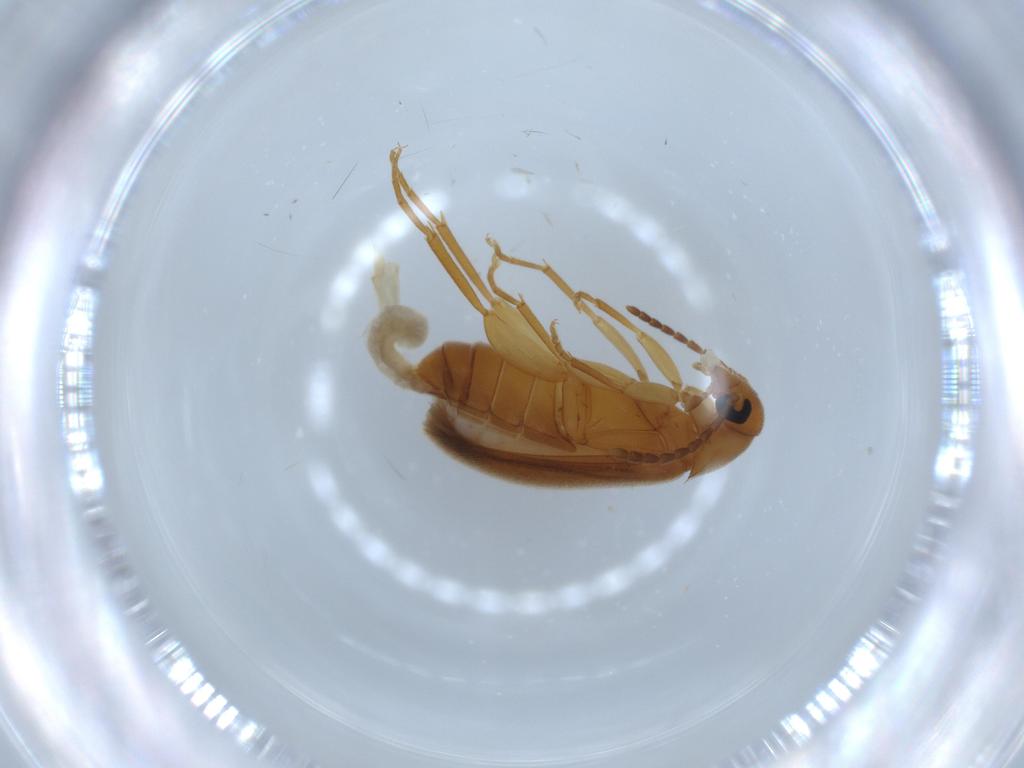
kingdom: Animalia
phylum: Arthropoda
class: Insecta
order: Coleoptera
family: Scraptiidae
